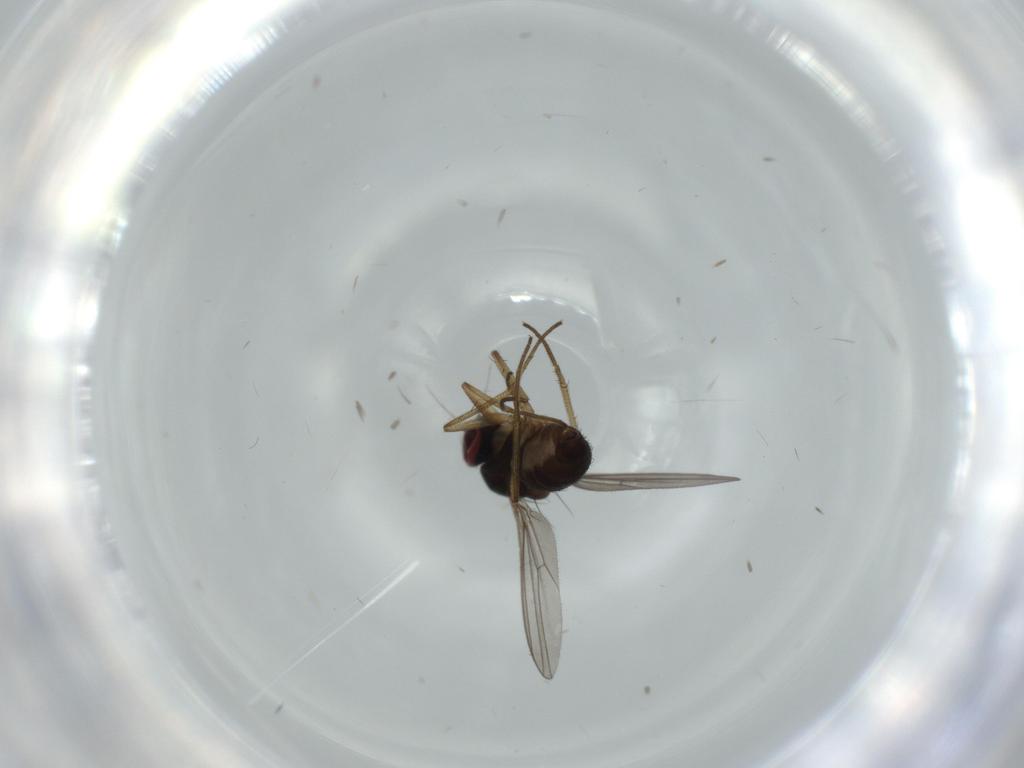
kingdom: Animalia
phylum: Arthropoda
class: Insecta
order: Diptera
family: Dolichopodidae
